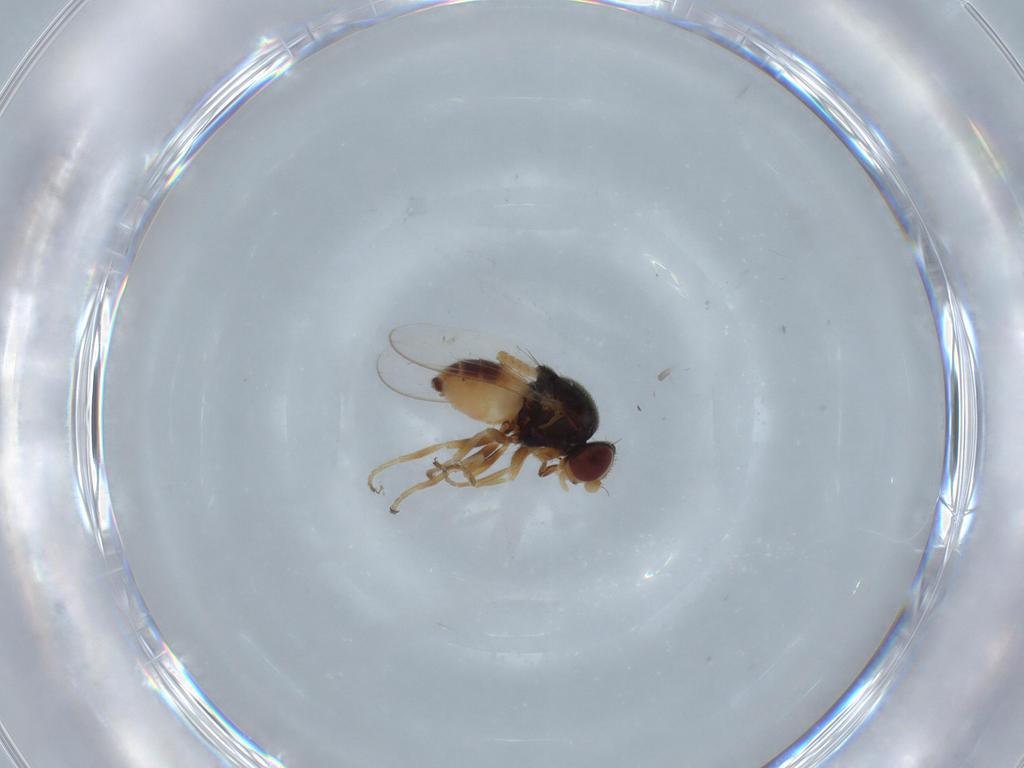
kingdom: Animalia
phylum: Arthropoda
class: Insecta
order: Diptera
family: Chloropidae
